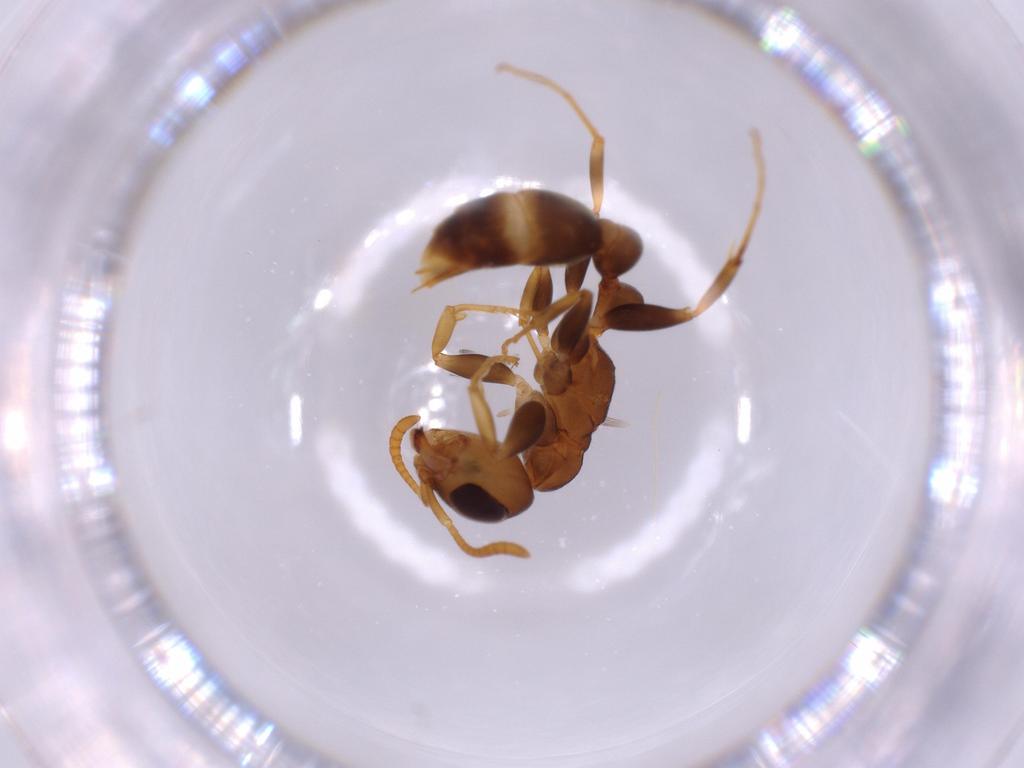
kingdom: Animalia
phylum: Arthropoda
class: Insecta
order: Hymenoptera
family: Formicidae
